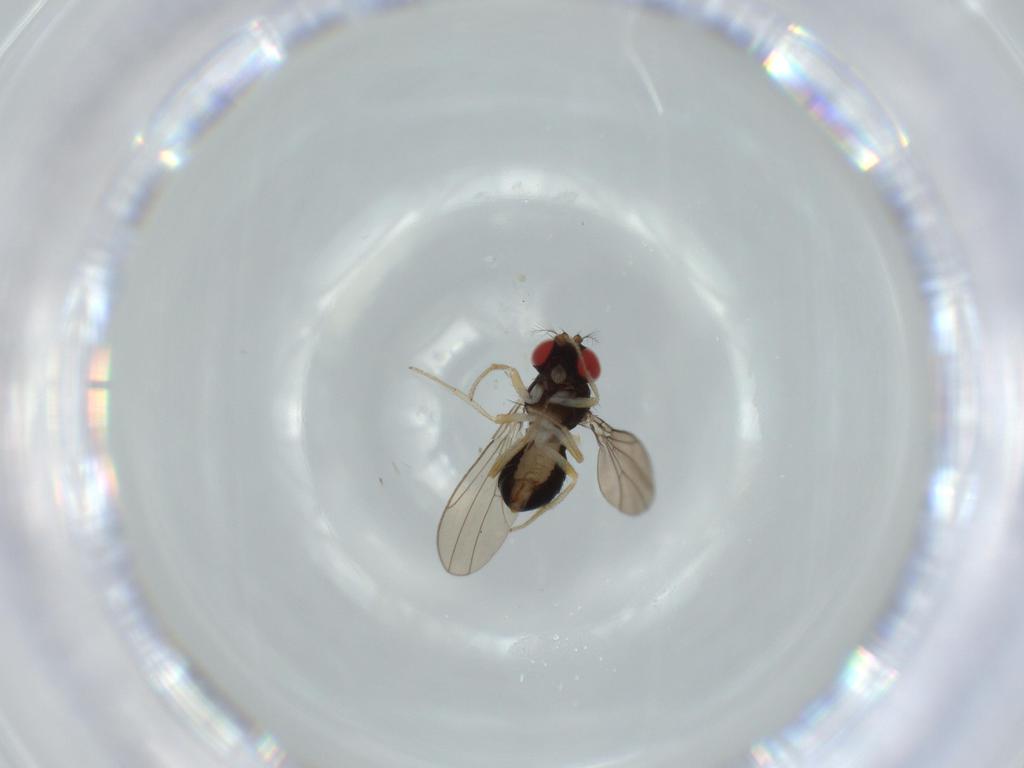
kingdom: Animalia
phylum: Arthropoda
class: Insecta
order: Diptera
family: Drosophilidae
